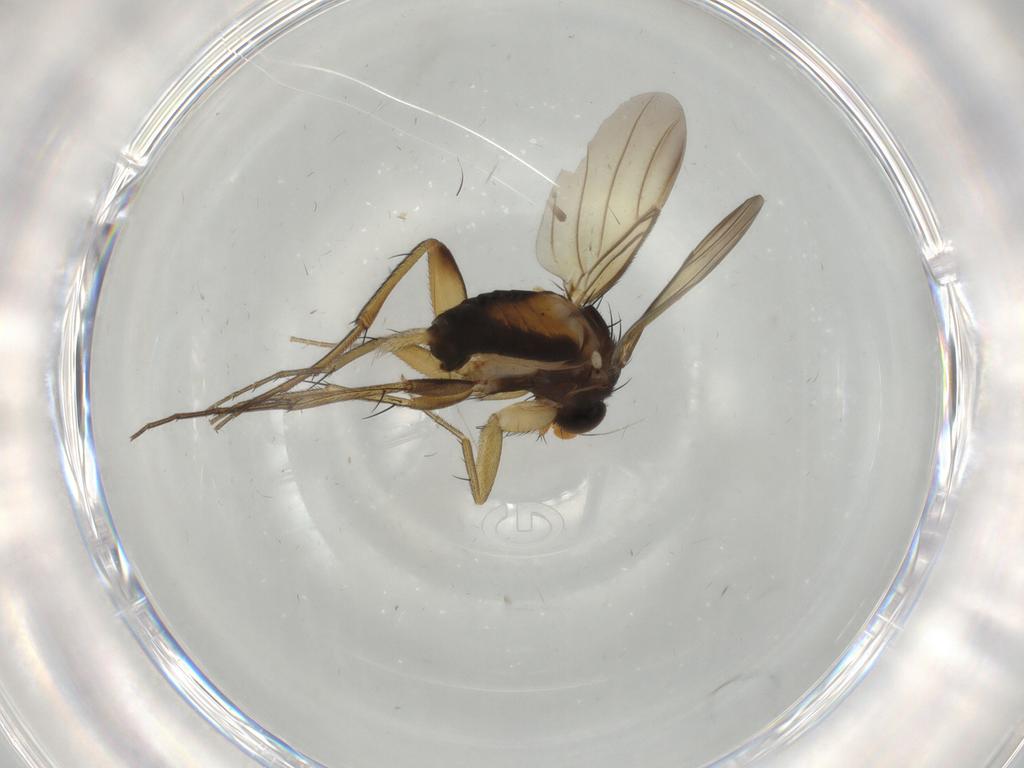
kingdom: Animalia
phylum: Arthropoda
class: Insecta
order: Diptera
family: Phoridae
